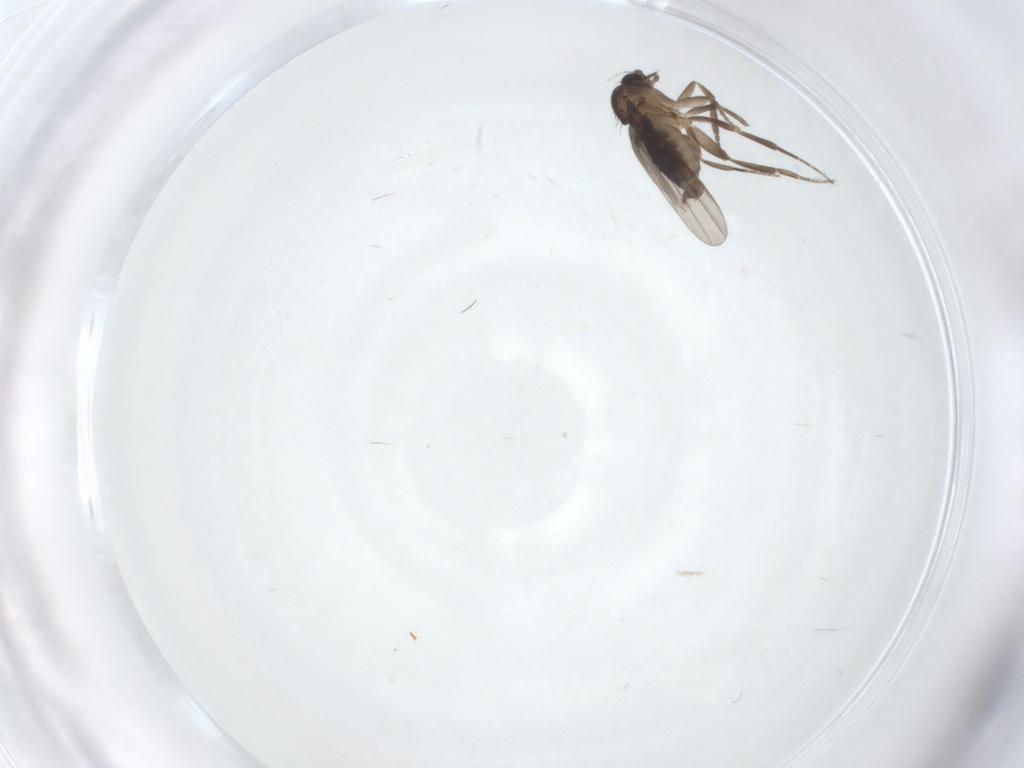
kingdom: Animalia
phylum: Arthropoda
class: Insecta
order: Diptera
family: Phoridae
